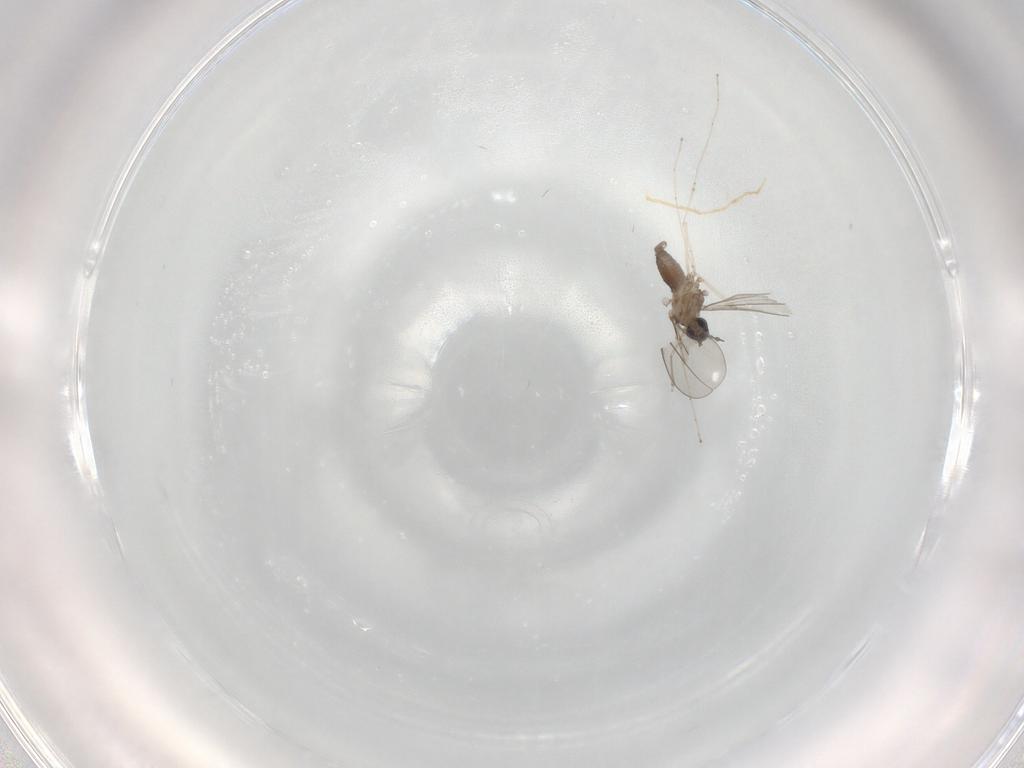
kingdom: Animalia
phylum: Arthropoda
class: Insecta
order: Diptera
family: Cecidomyiidae
